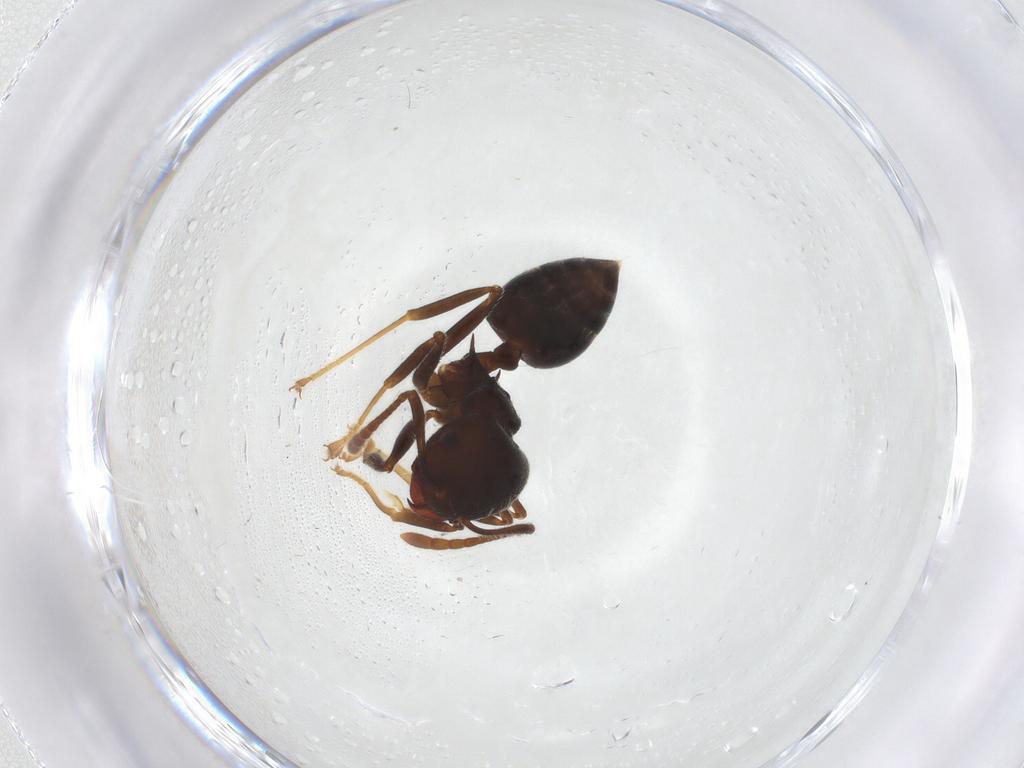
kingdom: Animalia
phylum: Arthropoda
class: Insecta
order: Hymenoptera
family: Formicidae
